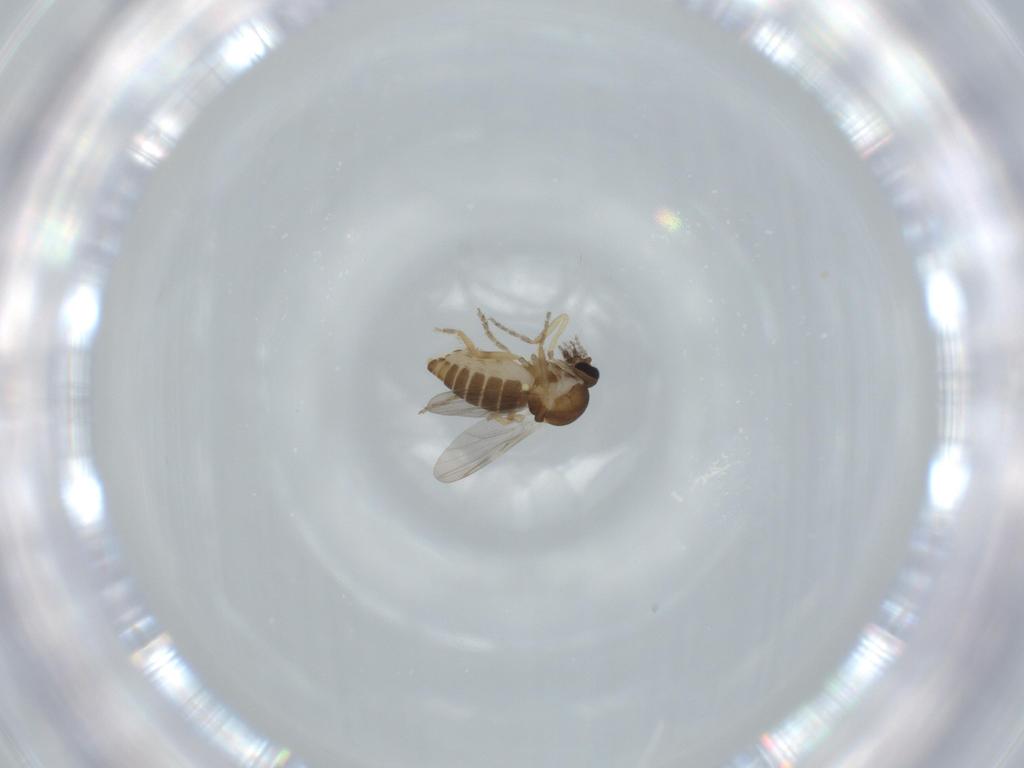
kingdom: Animalia
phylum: Arthropoda
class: Insecta
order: Diptera
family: Ceratopogonidae
